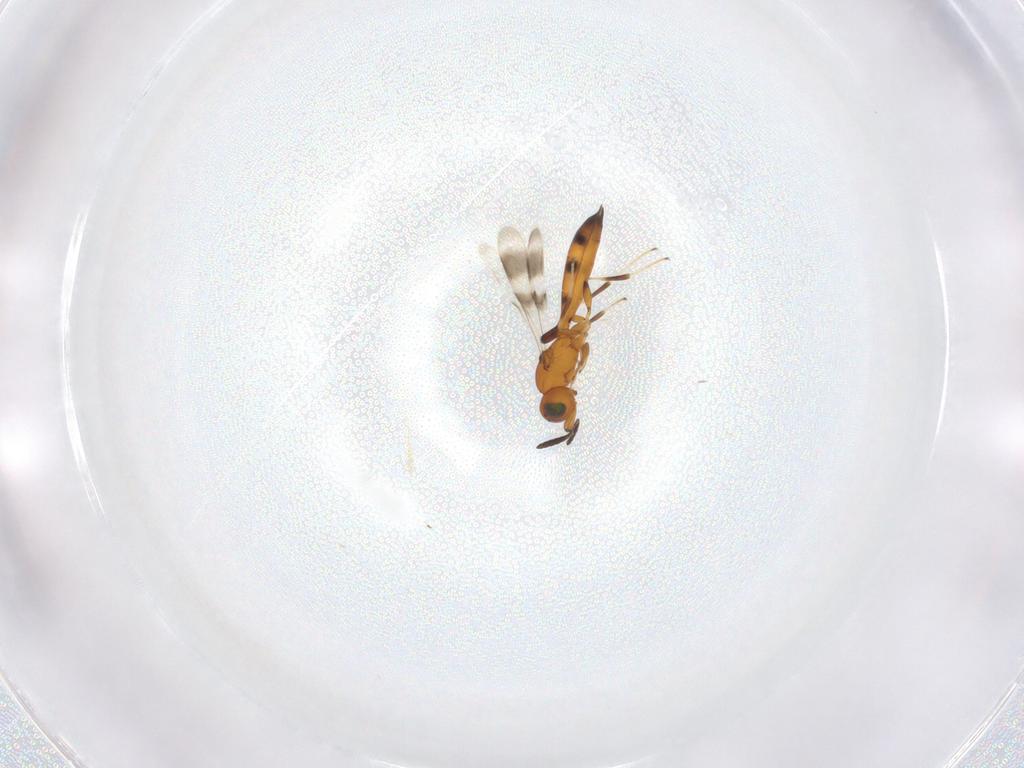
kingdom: Animalia
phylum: Arthropoda
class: Insecta
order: Hymenoptera
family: Scelionidae
